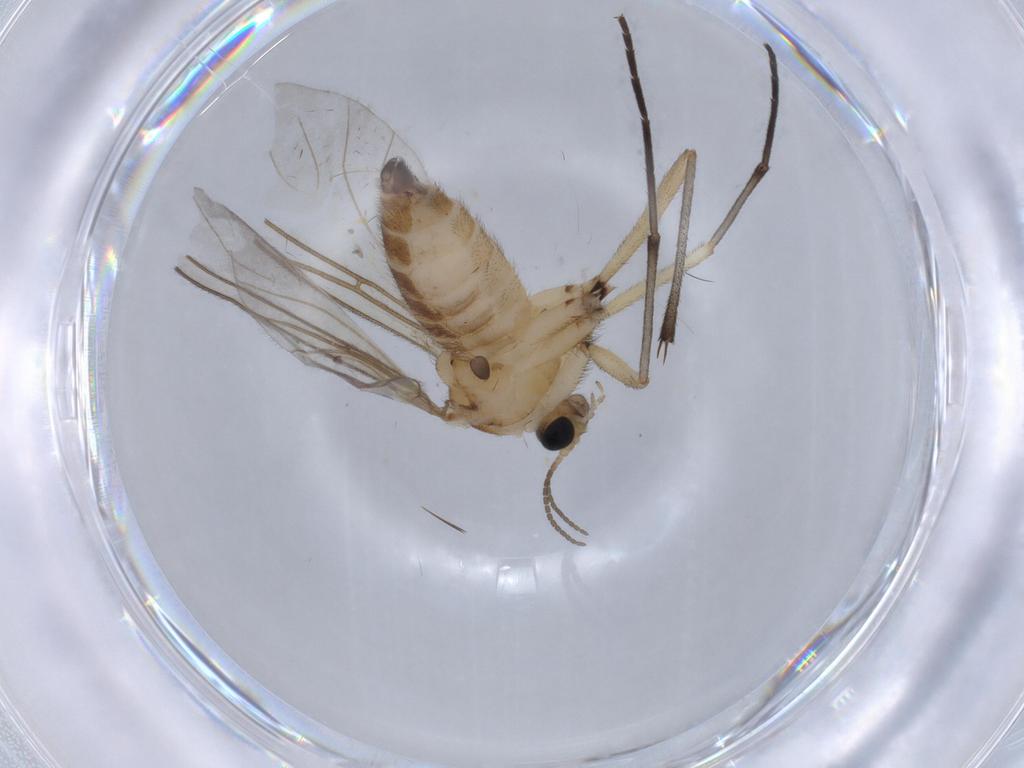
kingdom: Animalia
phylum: Arthropoda
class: Insecta
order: Diptera
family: Sciaridae
